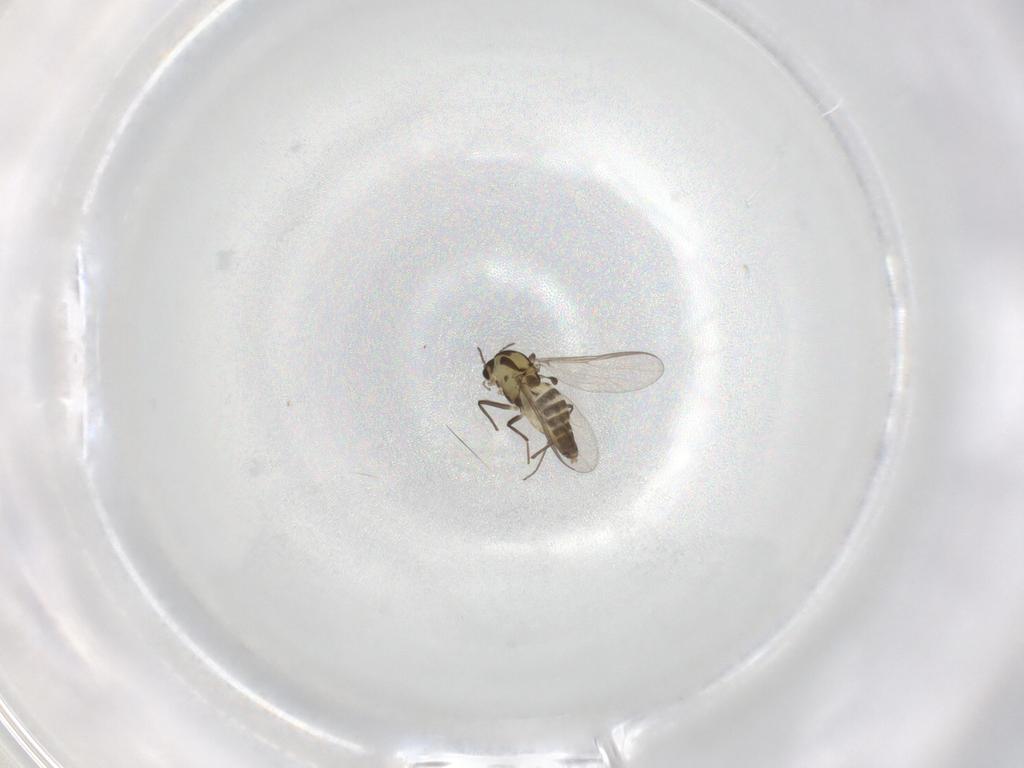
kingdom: Animalia
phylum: Arthropoda
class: Insecta
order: Diptera
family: Chironomidae
